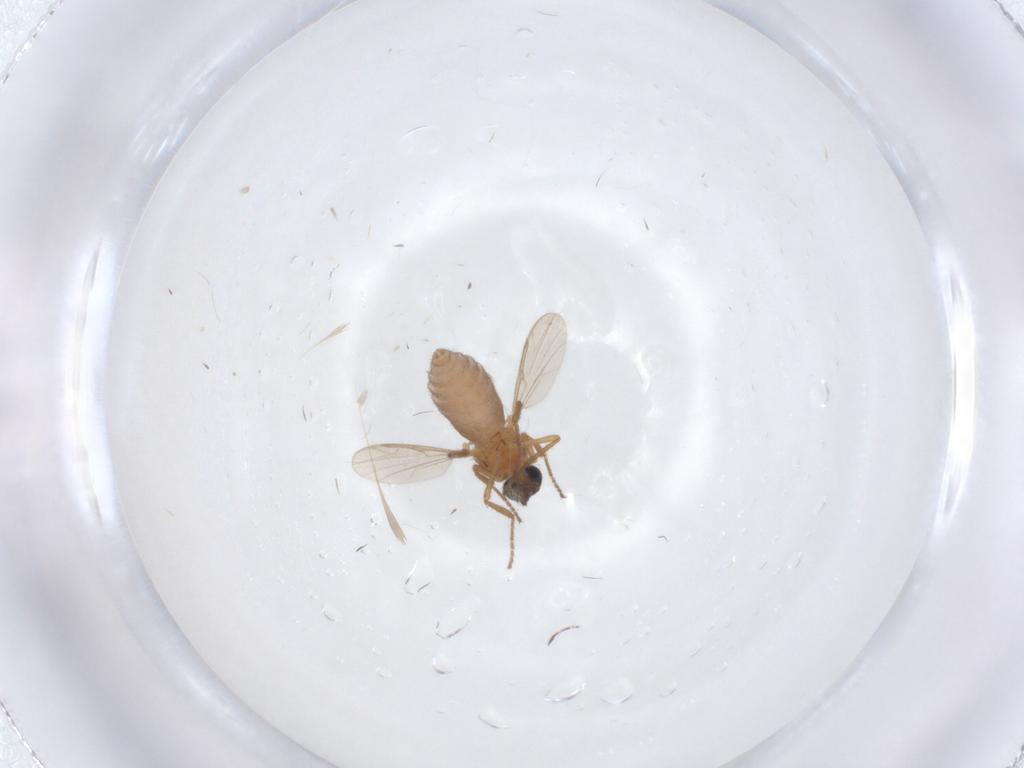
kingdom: Animalia
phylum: Arthropoda
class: Insecta
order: Diptera
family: Ceratopogonidae
